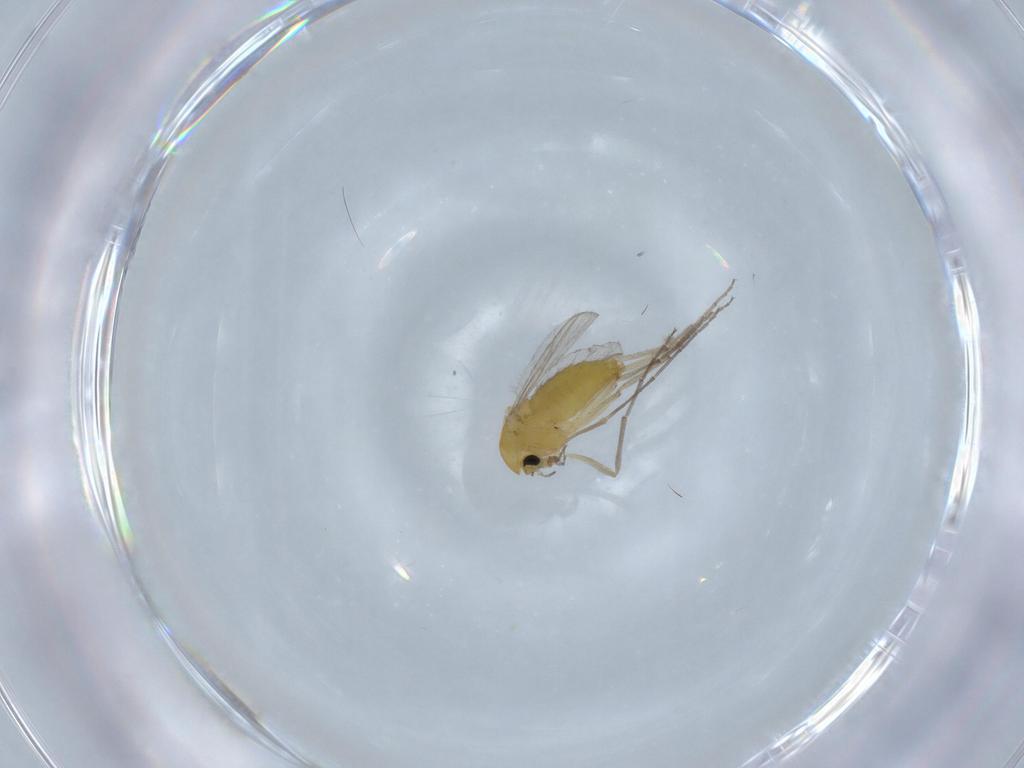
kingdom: Animalia
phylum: Arthropoda
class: Insecta
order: Diptera
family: Chironomidae
